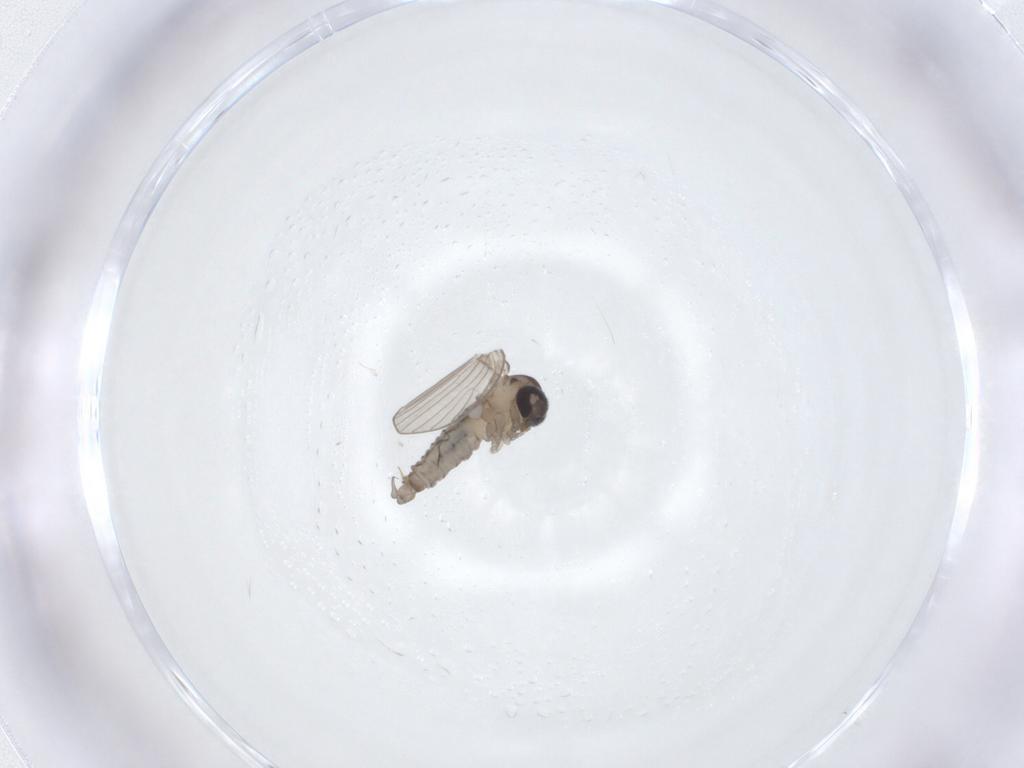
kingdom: Animalia
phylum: Arthropoda
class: Insecta
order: Diptera
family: Psychodidae
